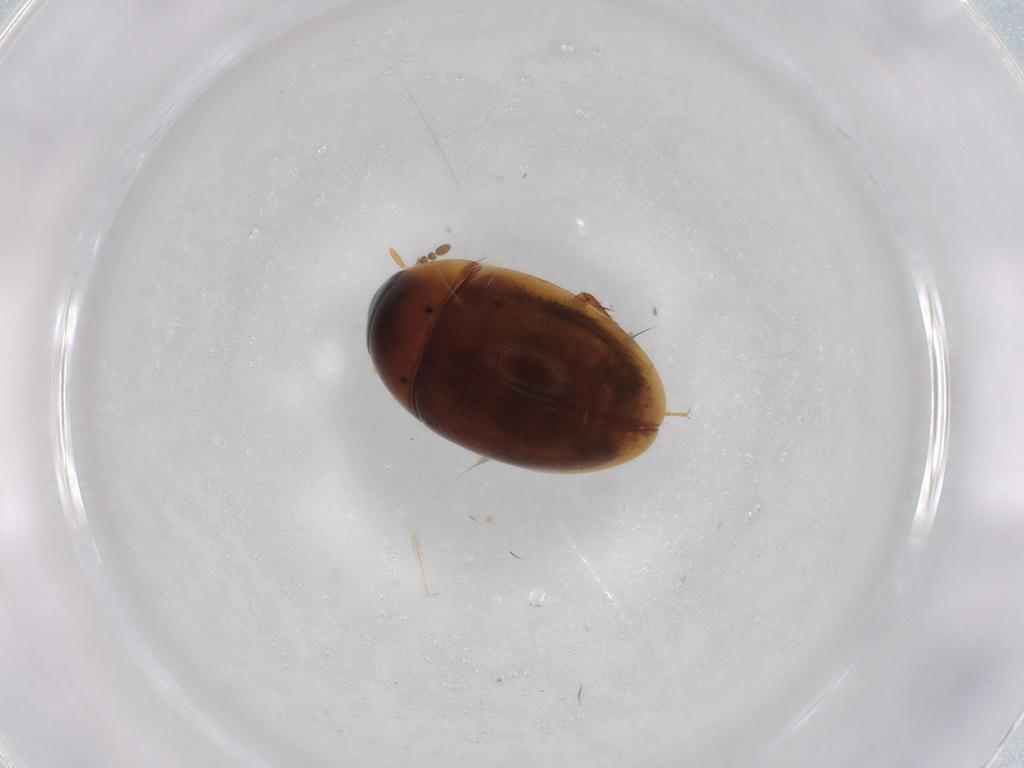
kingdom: Animalia
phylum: Arthropoda
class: Insecta
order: Coleoptera
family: Hydrophilidae
